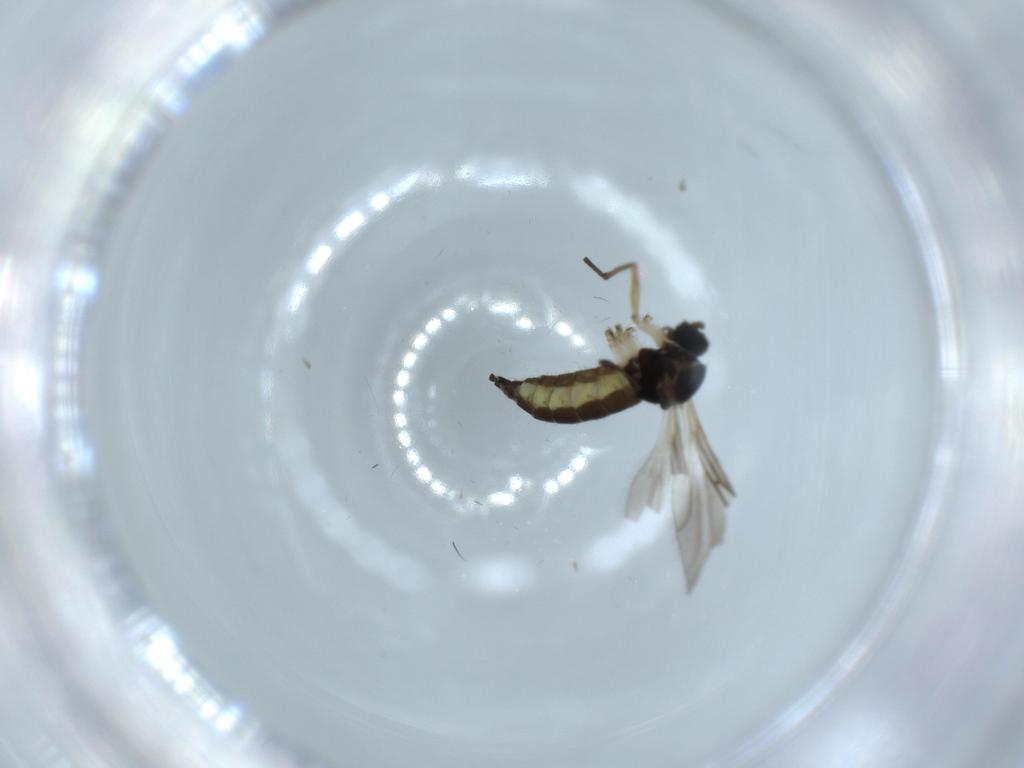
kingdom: Animalia
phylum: Arthropoda
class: Insecta
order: Diptera
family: Sciaridae
